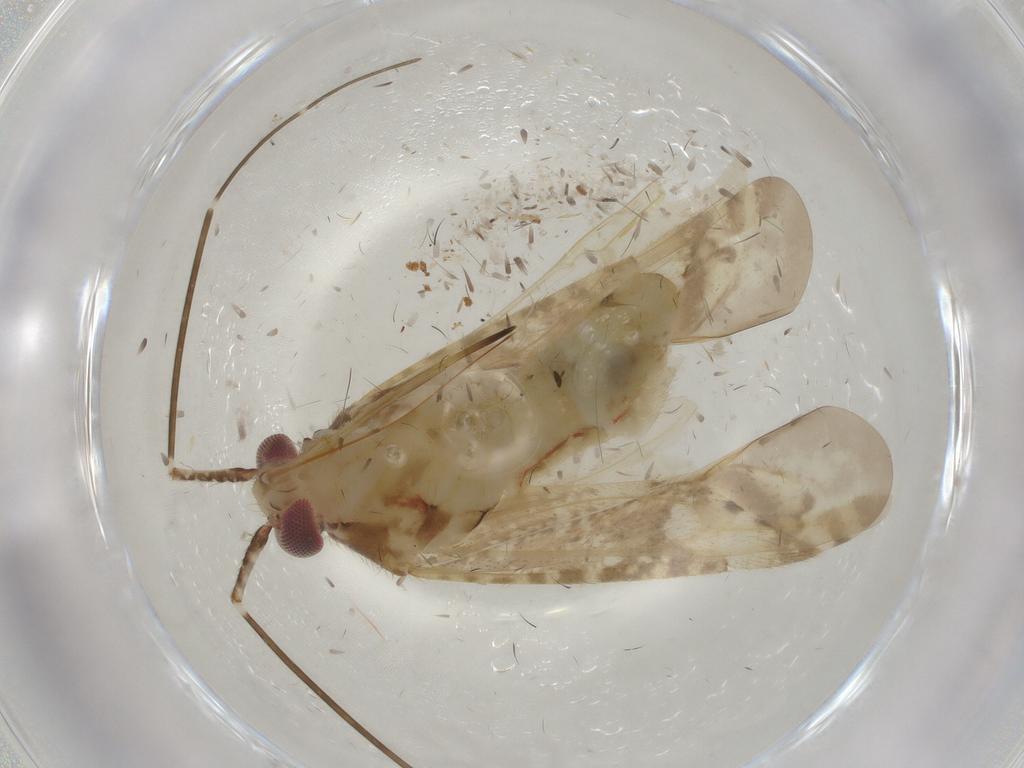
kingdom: Animalia
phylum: Arthropoda
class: Insecta
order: Hemiptera
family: Miridae
